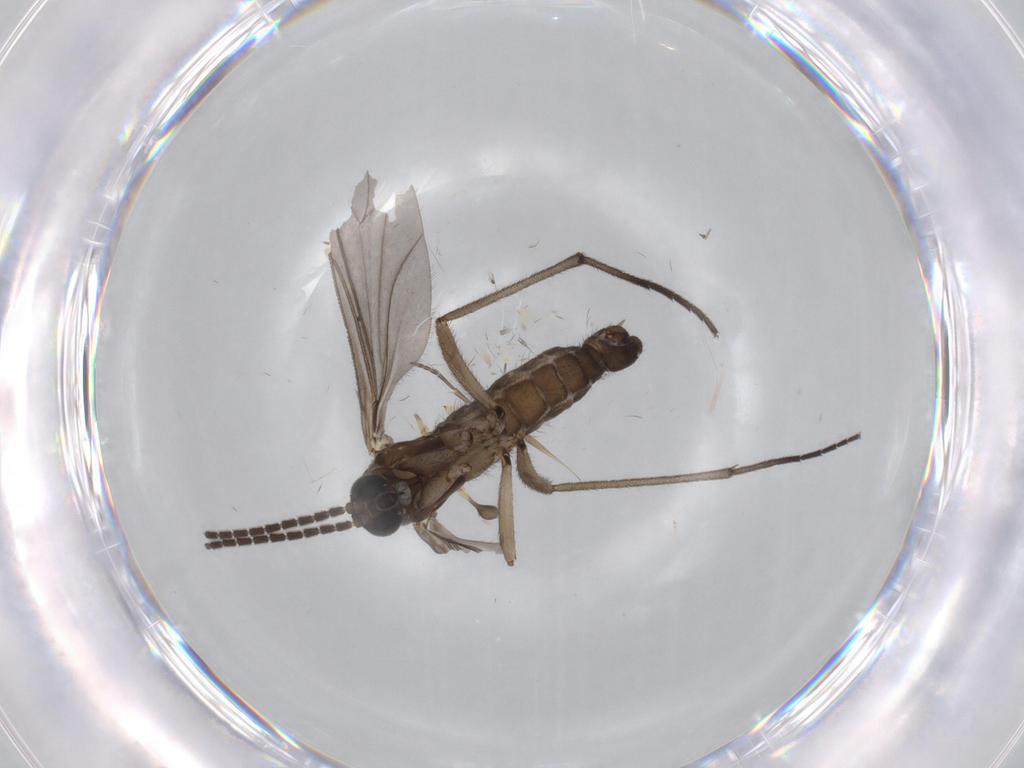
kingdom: Animalia
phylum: Arthropoda
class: Insecta
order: Diptera
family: Sciaridae
